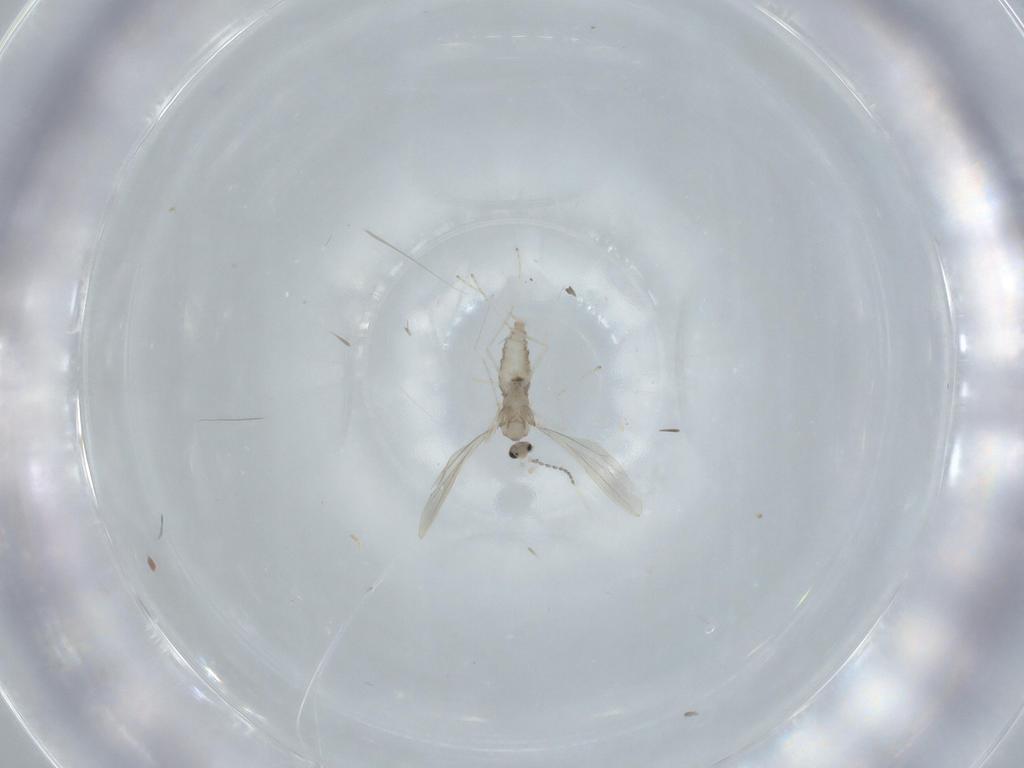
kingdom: Animalia
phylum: Arthropoda
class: Insecta
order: Diptera
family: Cecidomyiidae
